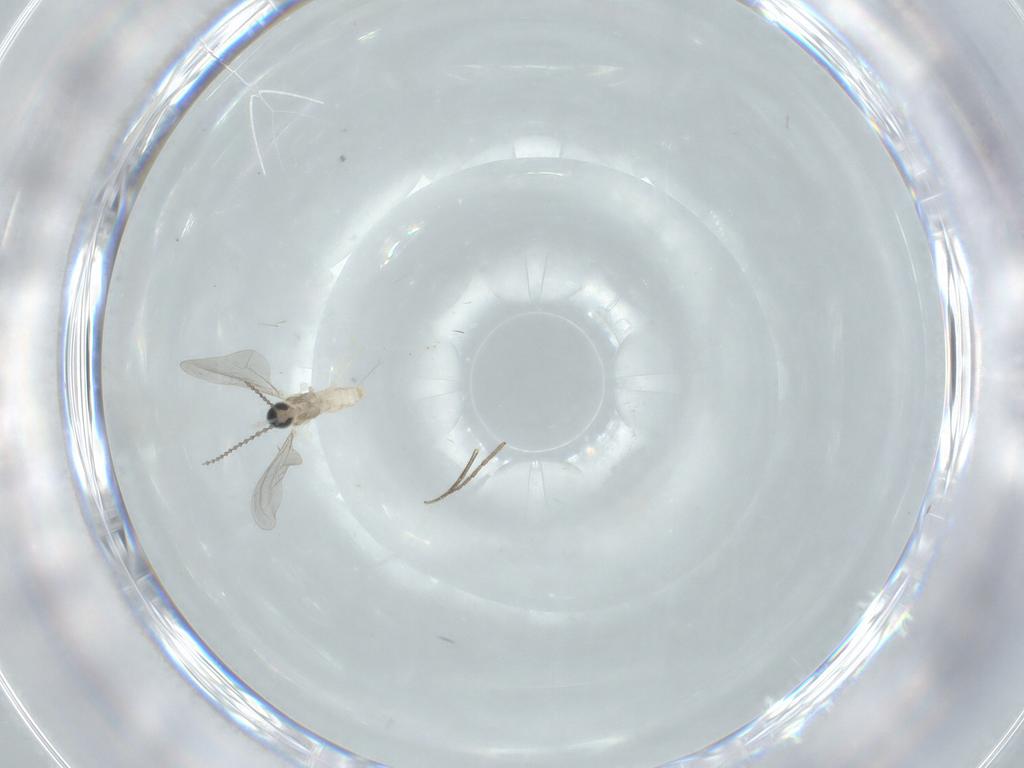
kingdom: Animalia
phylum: Arthropoda
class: Insecta
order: Diptera
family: Cecidomyiidae
